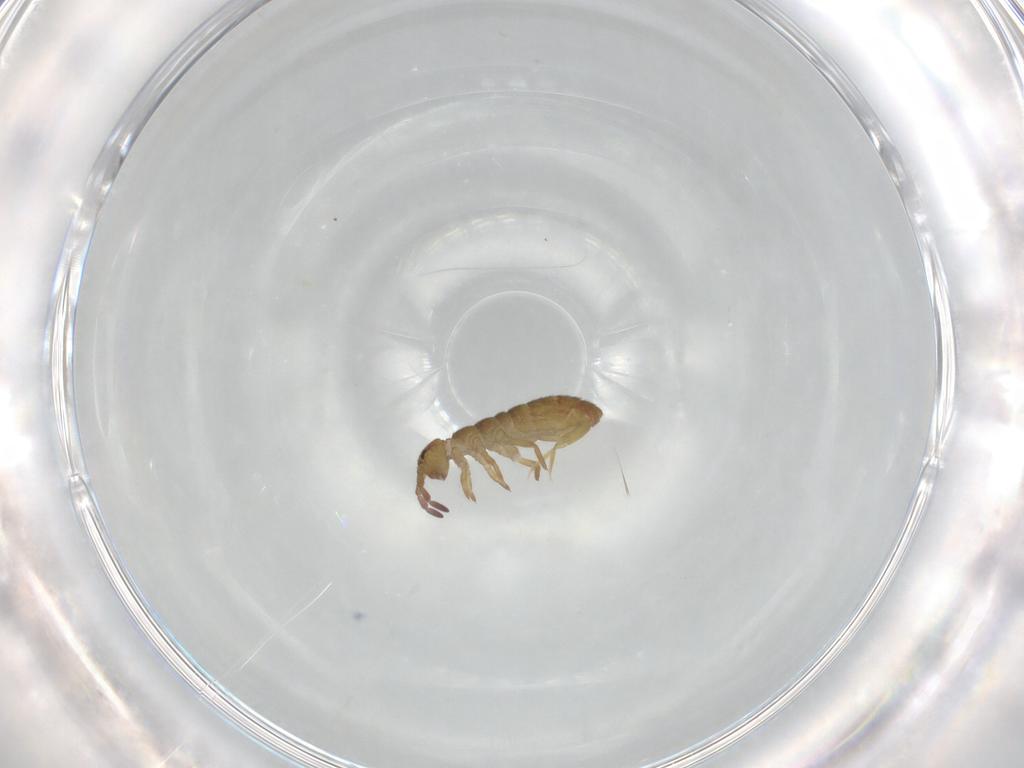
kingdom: Animalia
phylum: Arthropoda
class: Collembola
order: Entomobryomorpha
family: Isotomidae
